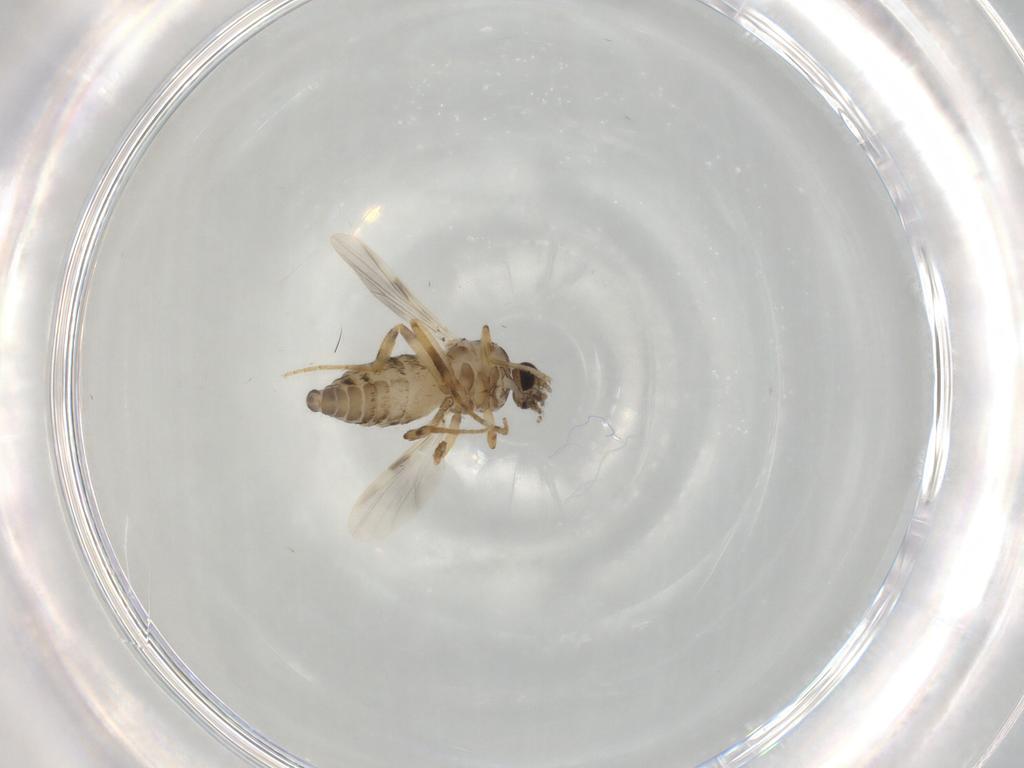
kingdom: Animalia
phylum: Arthropoda
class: Insecta
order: Diptera
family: Ceratopogonidae
